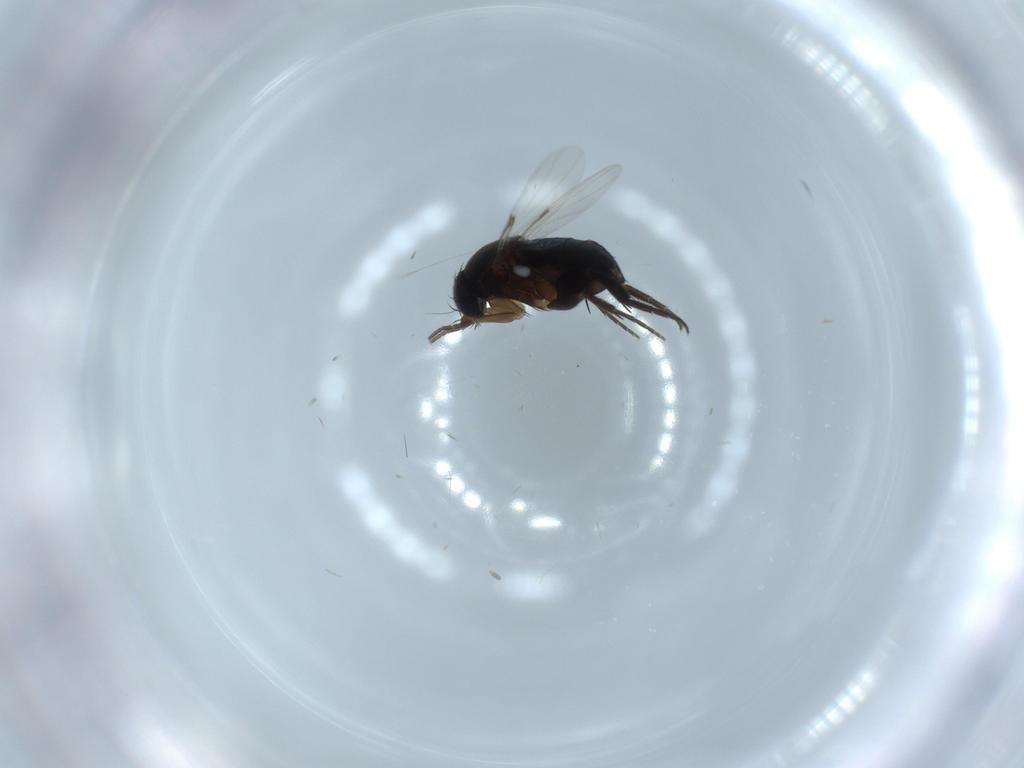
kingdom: Animalia
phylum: Arthropoda
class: Insecta
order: Diptera
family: Phoridae
